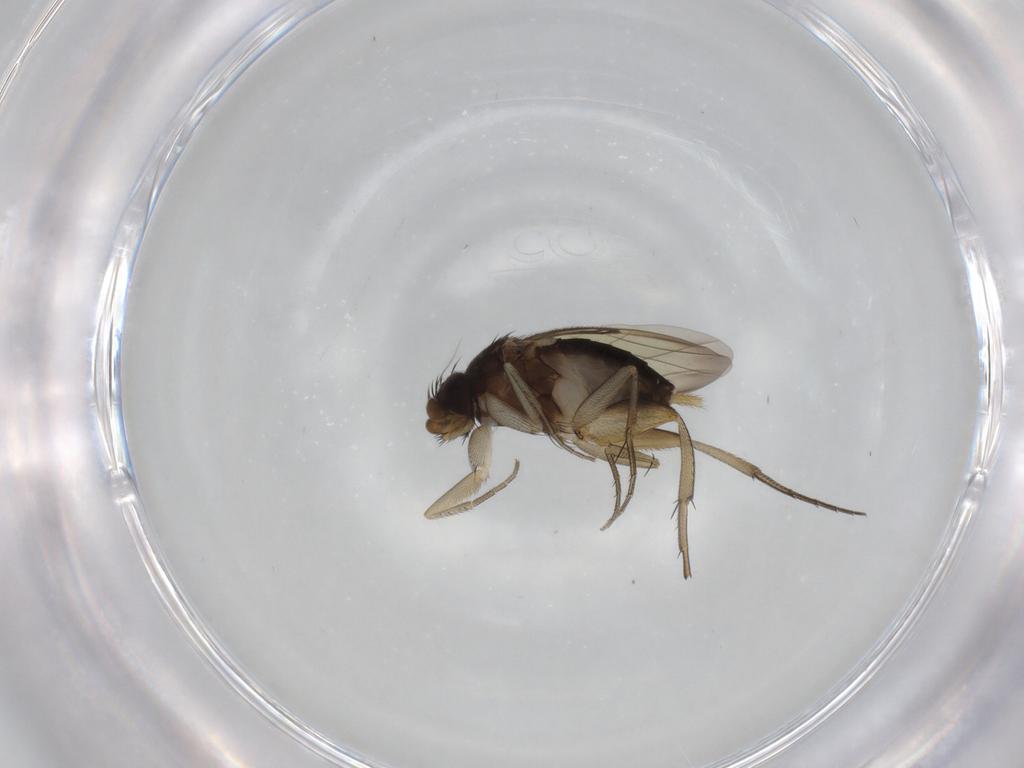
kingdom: Animalia
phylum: Arthropoda
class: Insecta
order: Diptera
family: Phoridae
